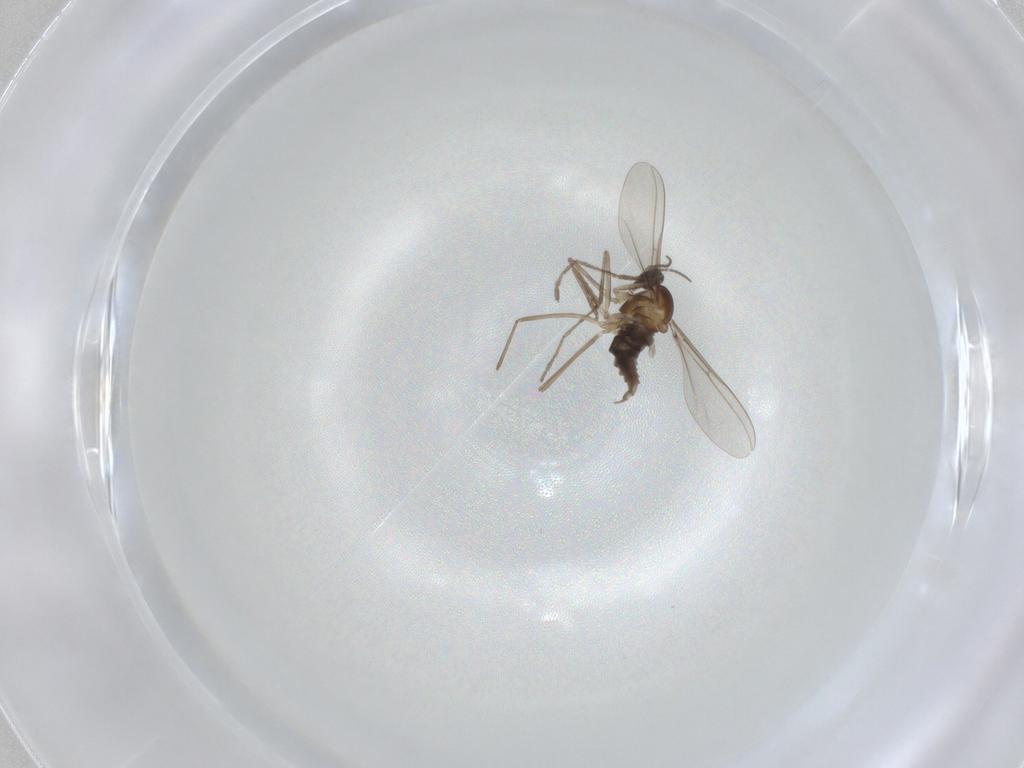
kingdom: Animalia
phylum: Arthropoda
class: Insecta
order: Diptera
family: Cecidomyiidae
